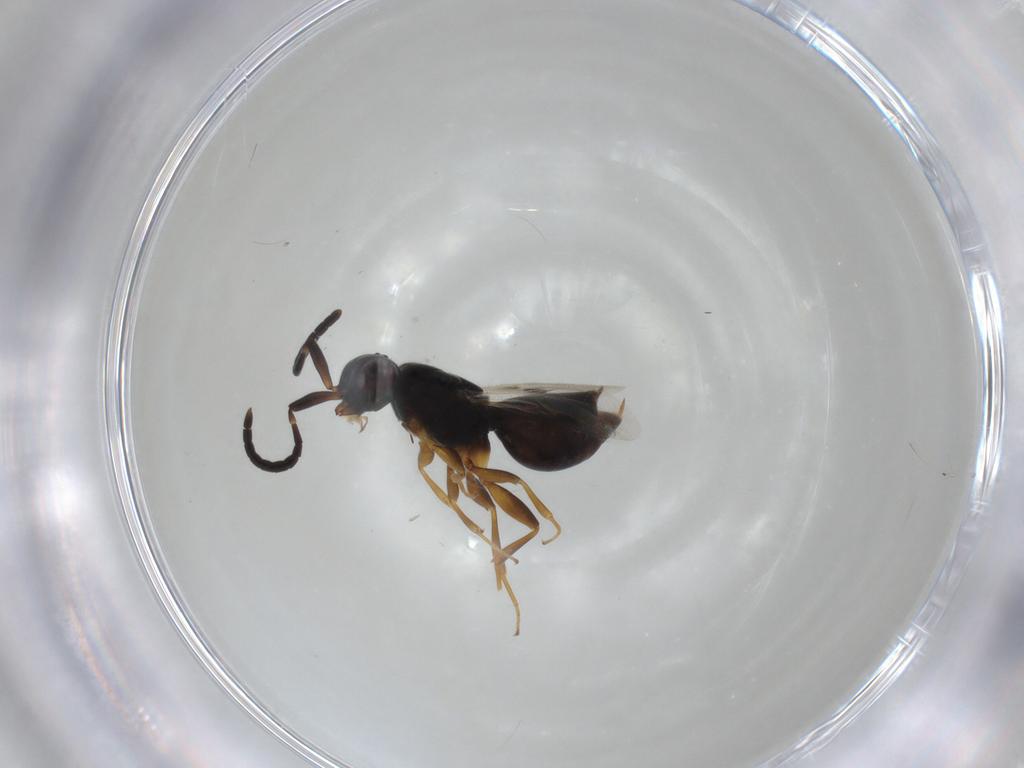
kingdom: Animalia
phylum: Arthropoda
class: Insecta
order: Hymenoptera
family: Megaspilidae
